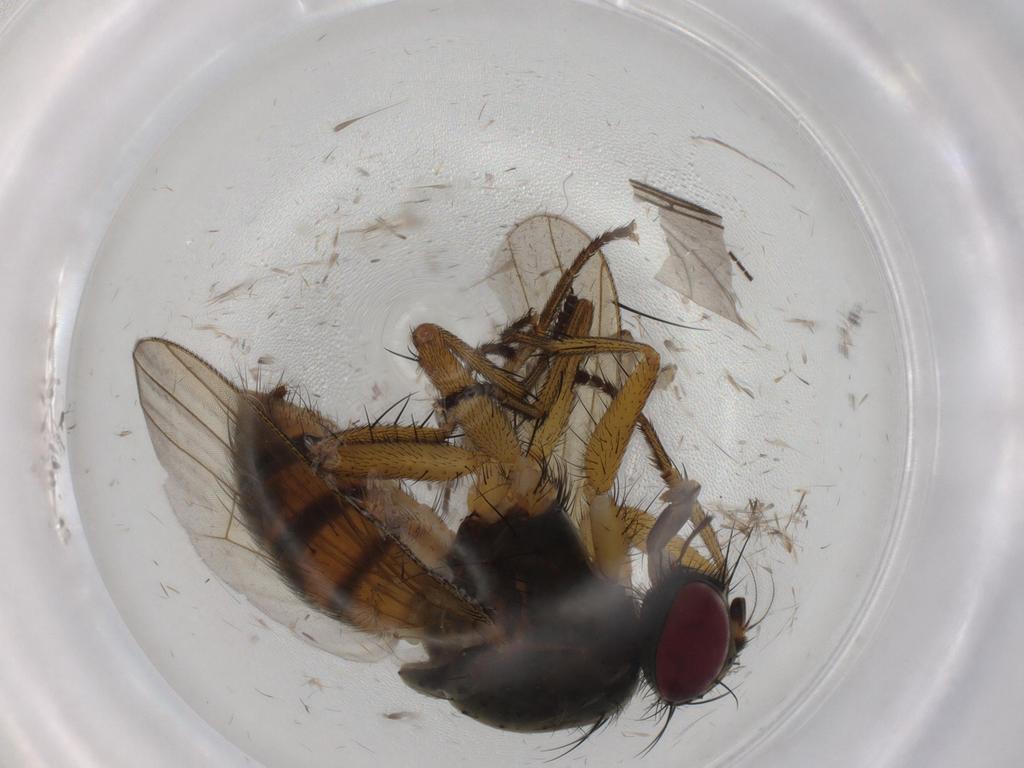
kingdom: Animalia
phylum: Arthropoda
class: Insecta
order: Diptera
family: Muscidae
